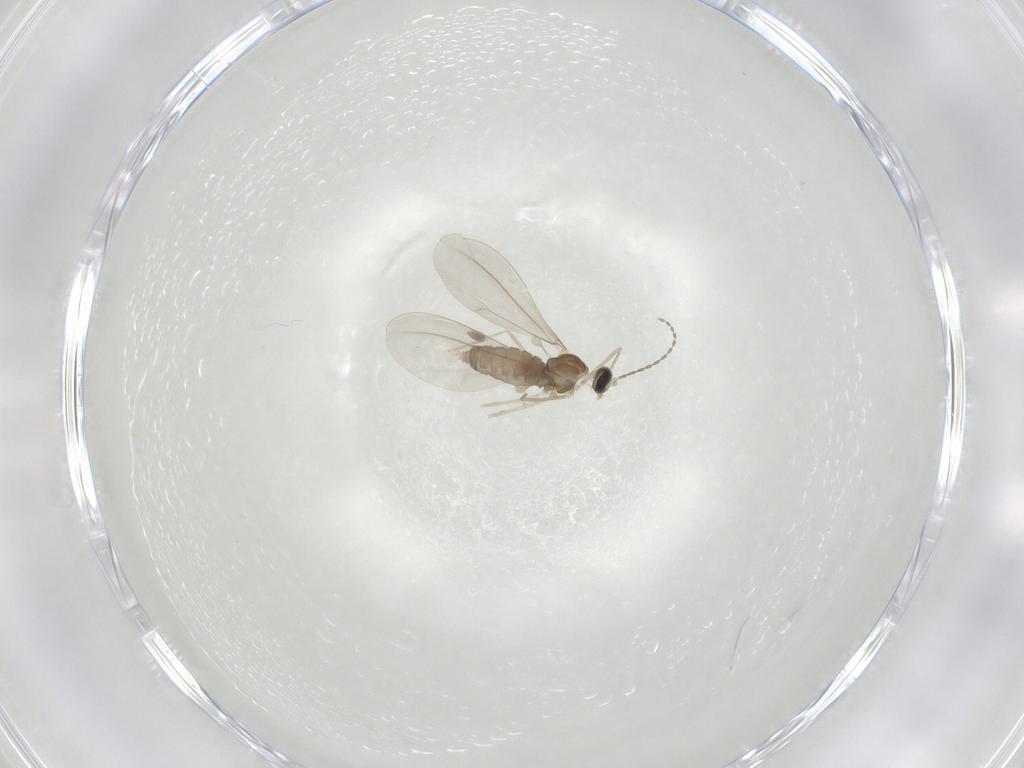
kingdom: Animalia
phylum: Arthropoda
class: Insecta
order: Diptera
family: Cecidomyiidae
